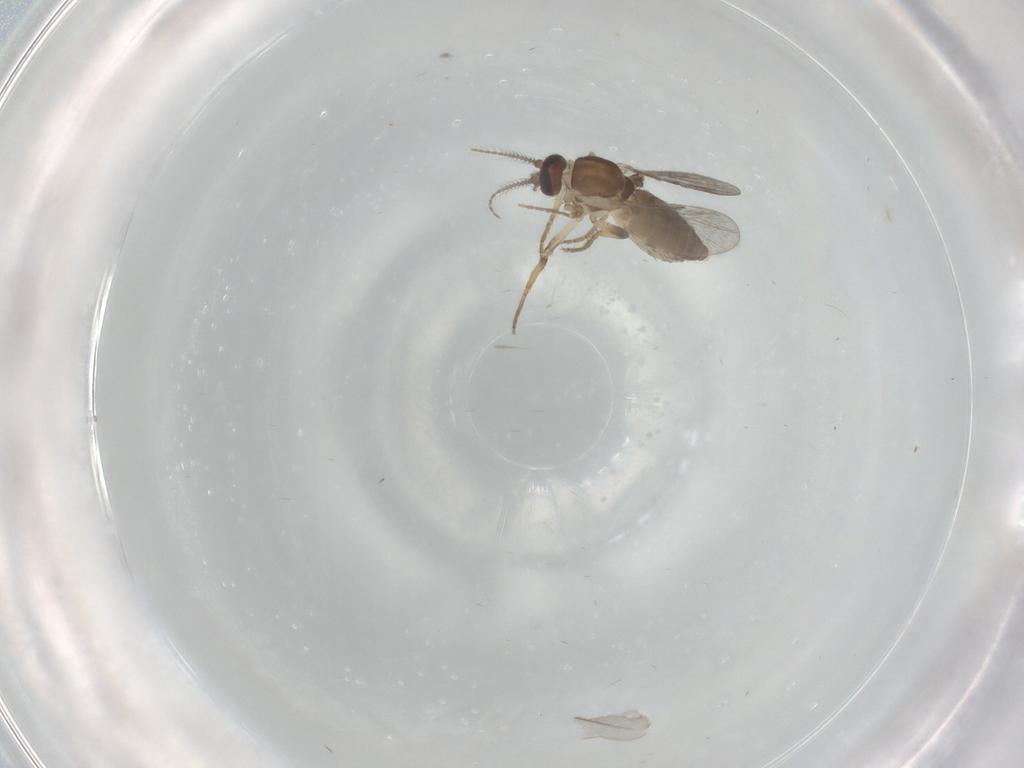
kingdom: Animalia
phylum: Arthropoda
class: Insecta
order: Diptera
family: Ceratopogonidae
